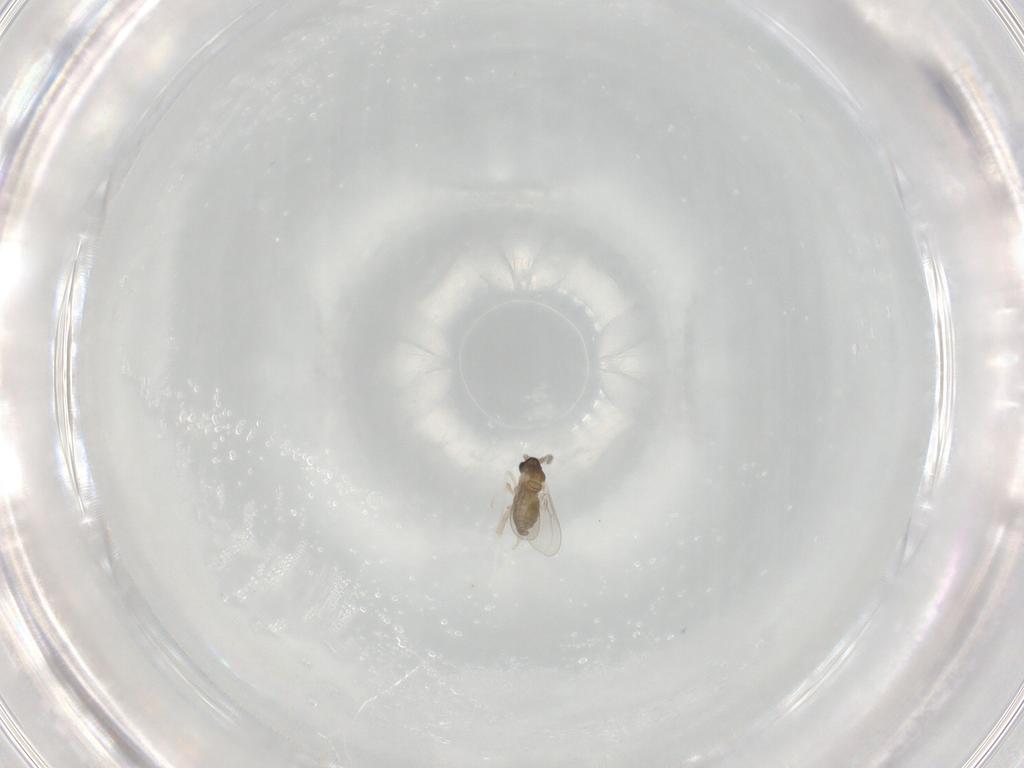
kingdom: Animalia
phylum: Arthropoda
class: Insecta
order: Diptera
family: Cecidomyiidae
